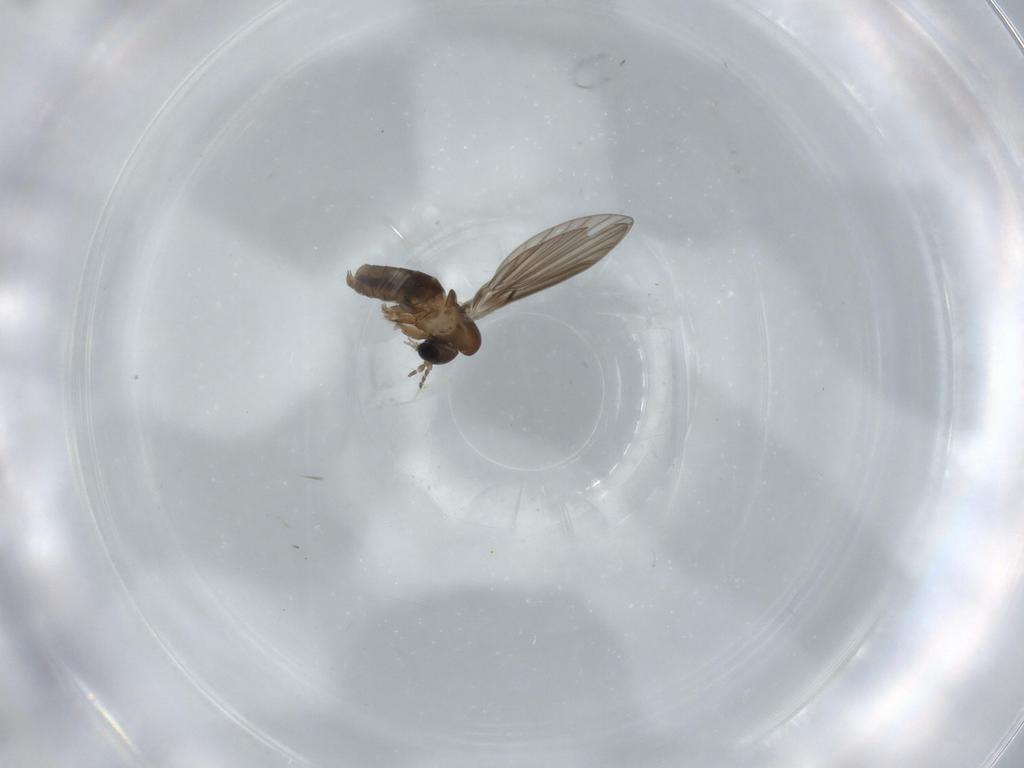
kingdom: Animalia
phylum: Arthropoda
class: Insecta
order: Diptera
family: Psychodidae
